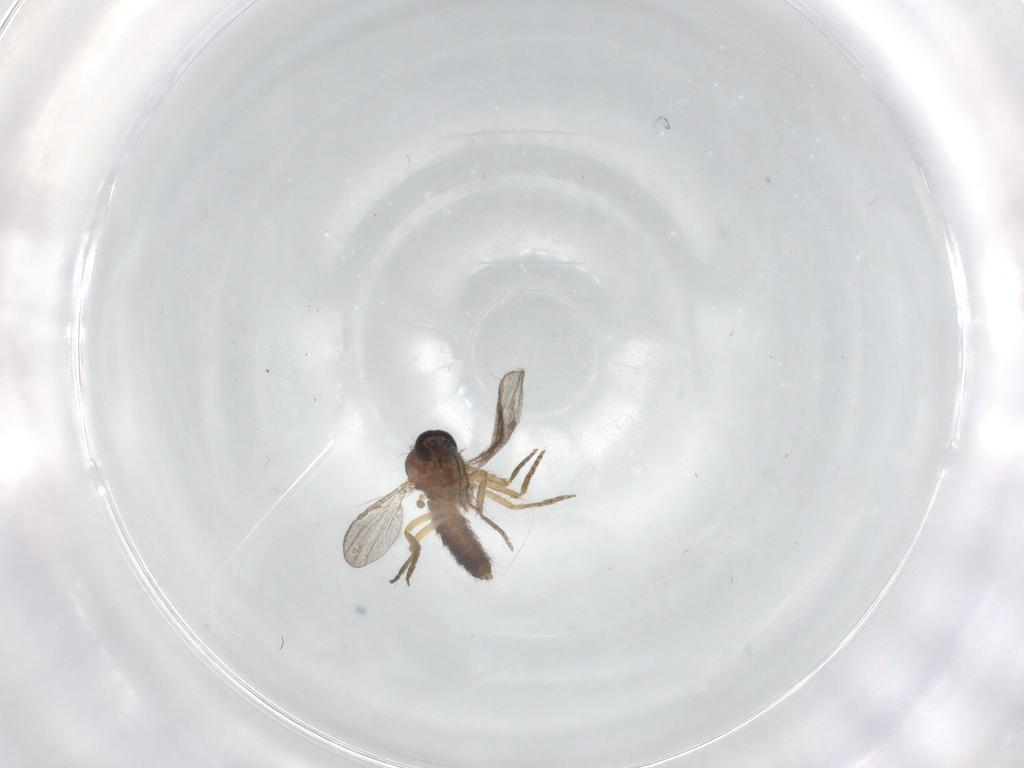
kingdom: Animalia
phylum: Arthropoda
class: Insecta
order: Diptera
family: Ceratopogonidae
